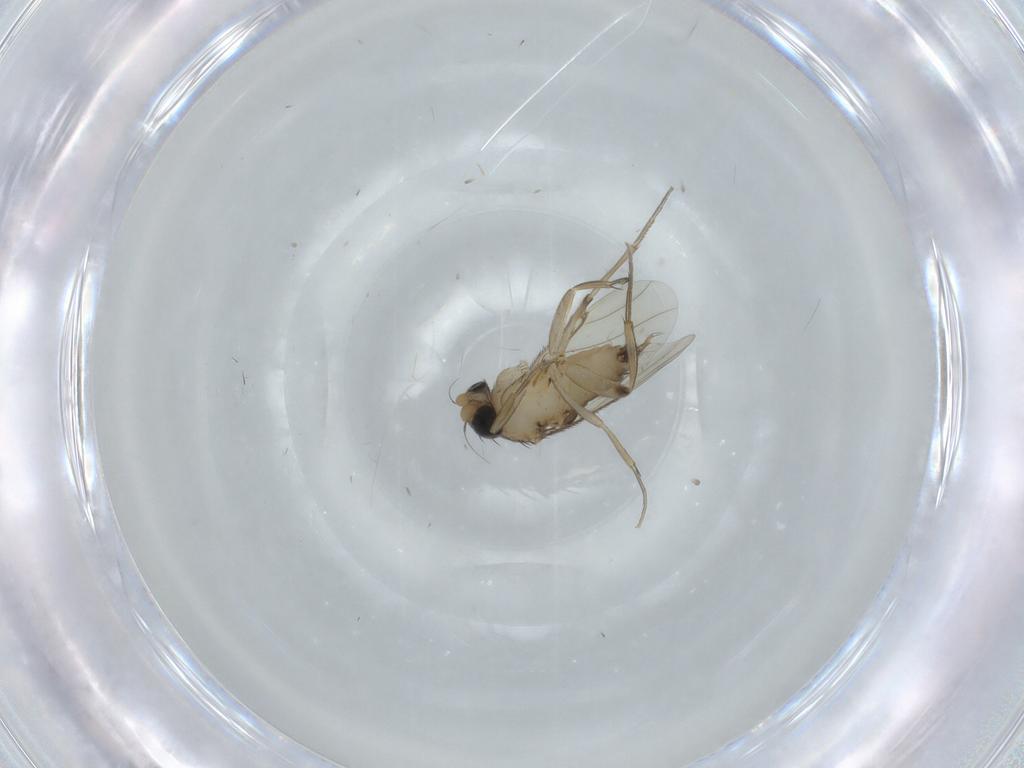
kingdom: Animalia
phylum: Arthropoda
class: Insecta
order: Diptera
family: Phoridae
